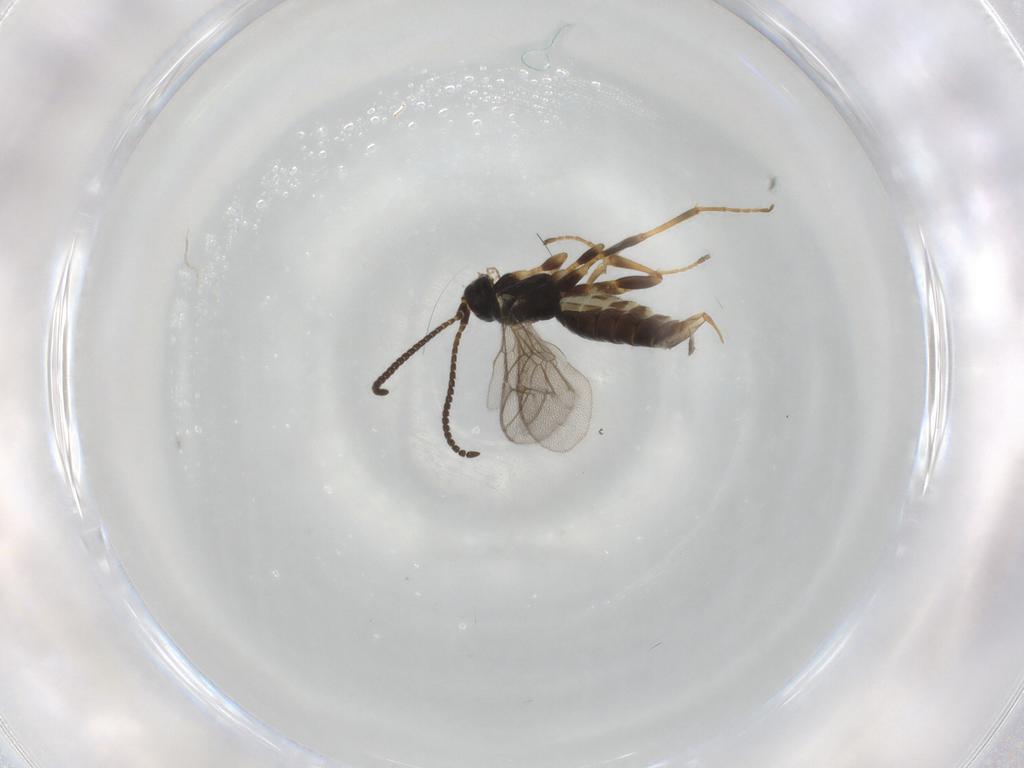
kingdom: Animalia
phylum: Arthropoda
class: Insecta
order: Hymenoptera
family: Ichneumonidae
